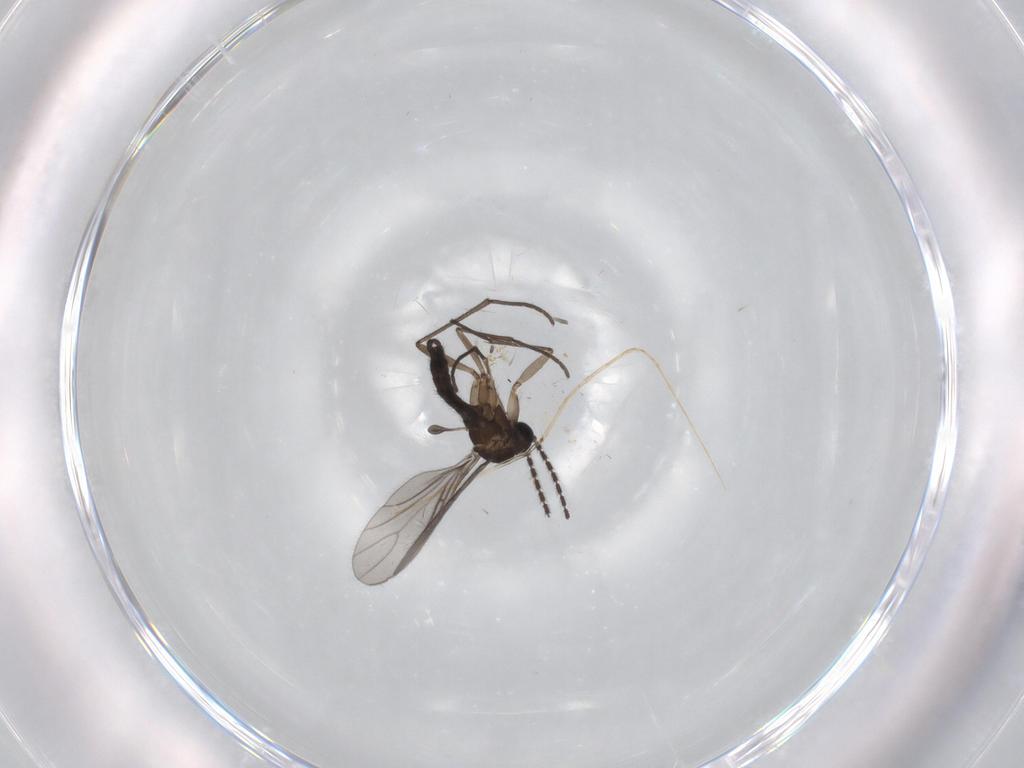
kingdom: Animalia
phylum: Arthropoda
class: Insecta
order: Diptera
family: Sciaridae
